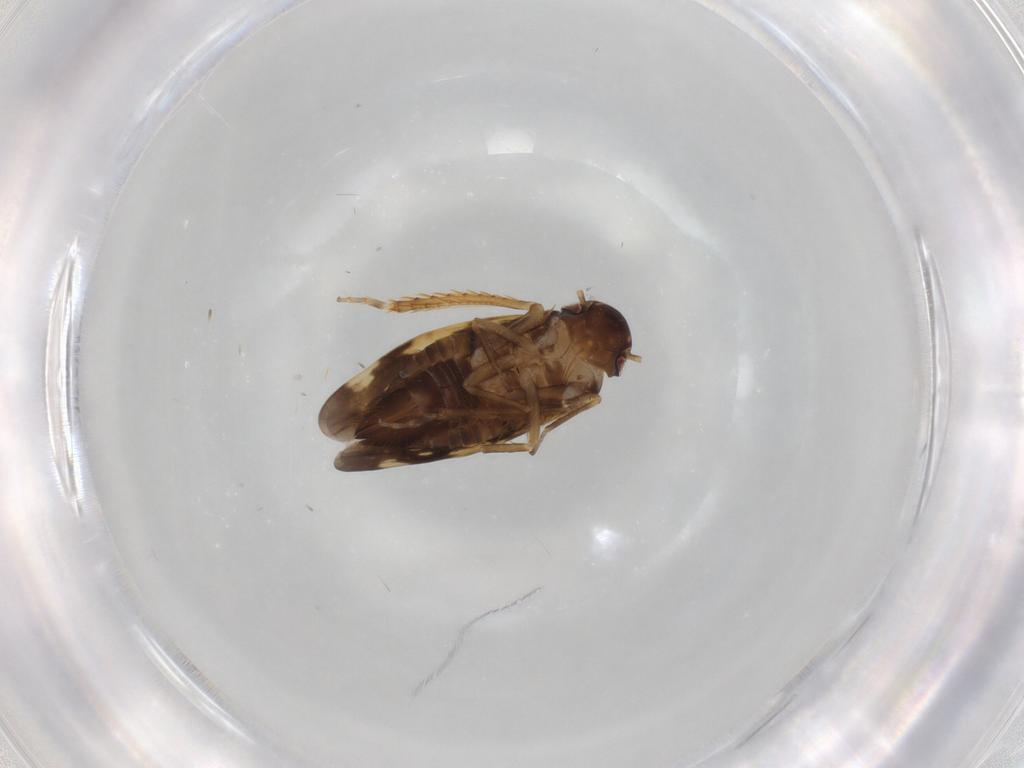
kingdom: Animalia
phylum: Arthropoda
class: Insecta
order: Hemiptera
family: Cicadellidae
